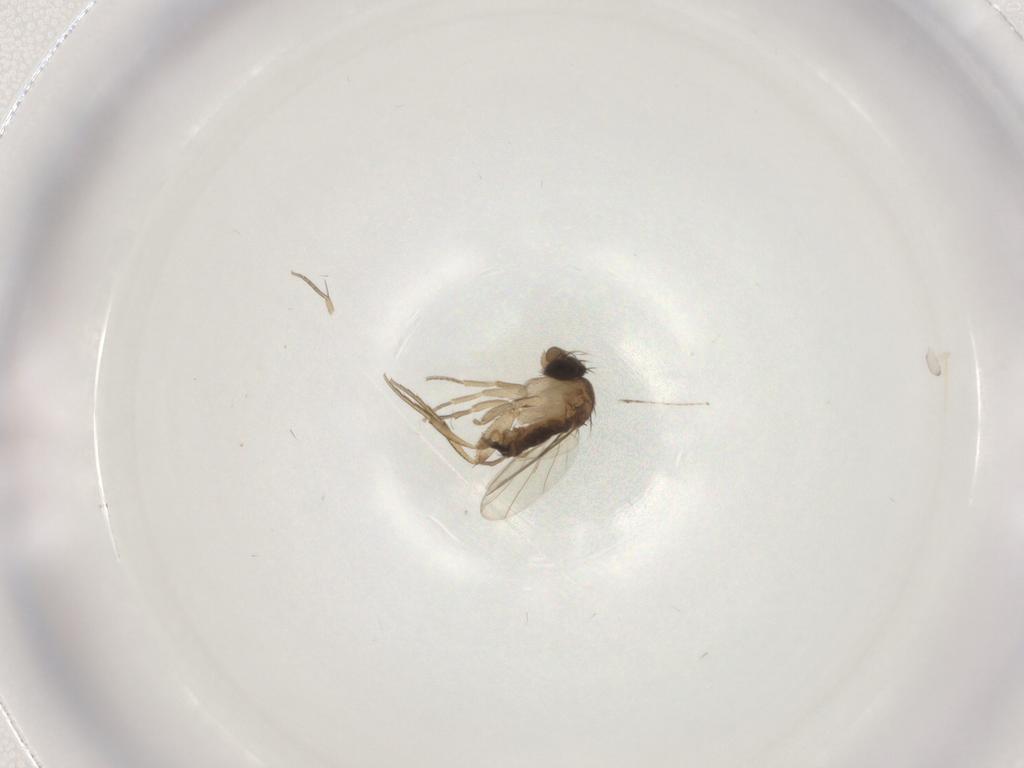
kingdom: Animalia
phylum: Arthropoda
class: Insecta
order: Diptera
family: Cecidomyiidae
